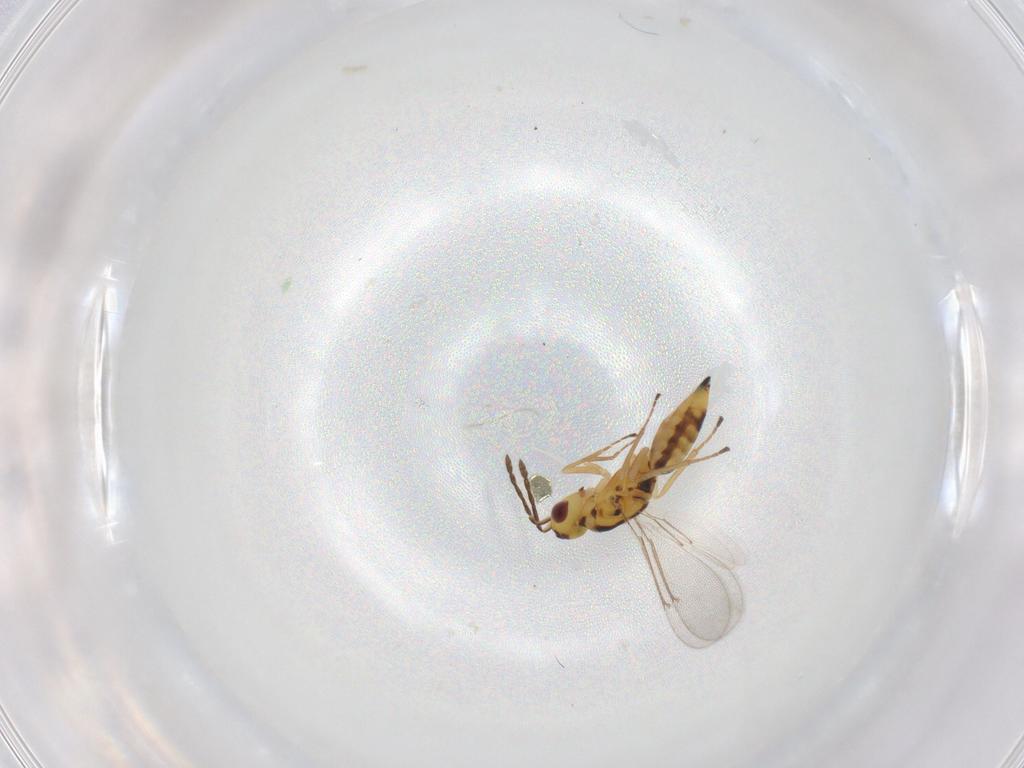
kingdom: Animalia
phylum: Arthropoda
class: Insecta
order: Hymenoptera
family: Eulophidae
